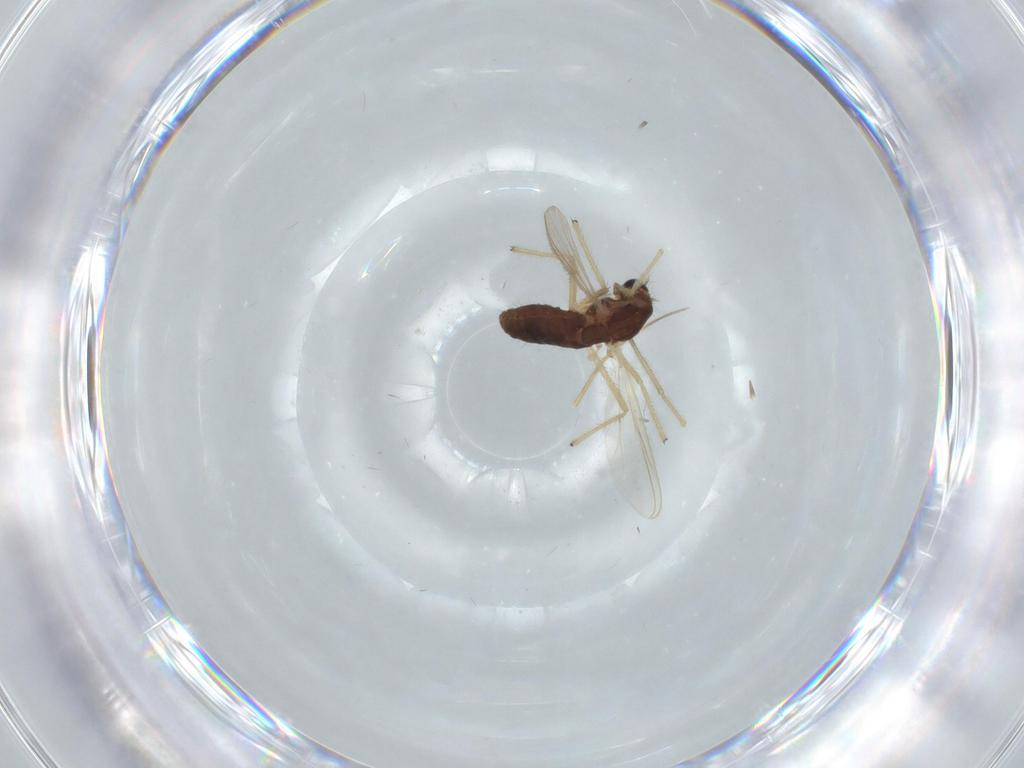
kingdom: Animalia
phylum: Arthropoda
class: Insecta
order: Diptera
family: Chironomidae
